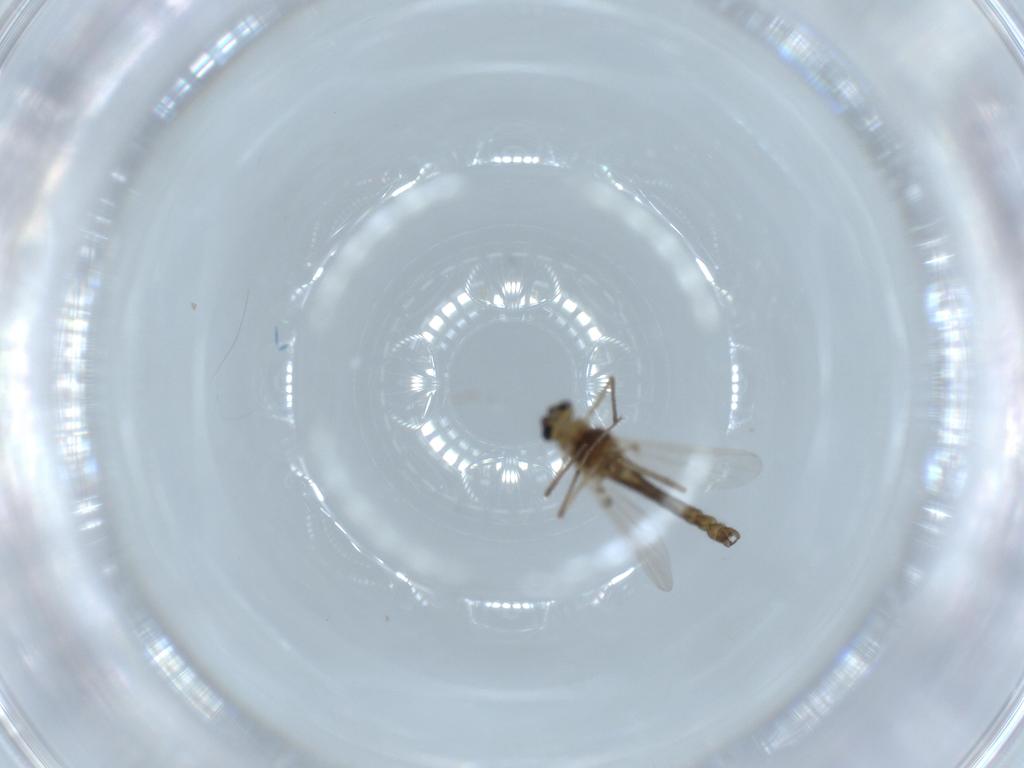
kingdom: Animalia
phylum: Arthropoda
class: Insecta
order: Diptera
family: Chironomidae
